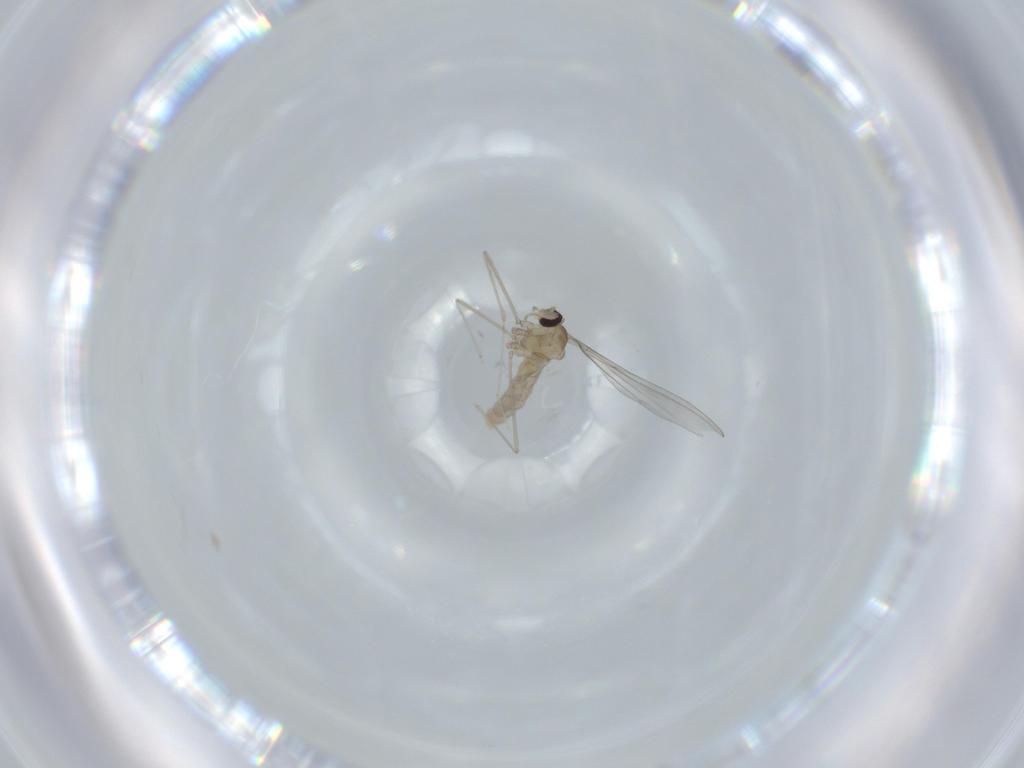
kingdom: Animalia
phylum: Arthropoda
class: Insecta
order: Diptera
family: Cecidomyiidae
